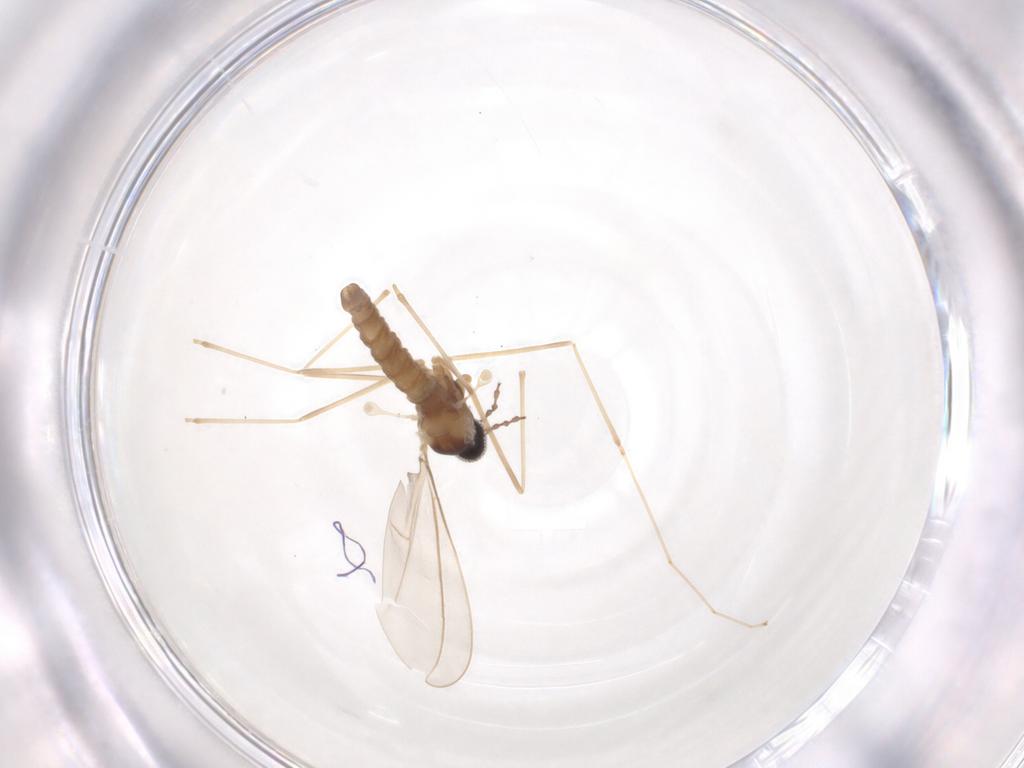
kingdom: Animalia
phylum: Arthropoda
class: Insecta
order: Diptera
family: Cecidomyiidae
